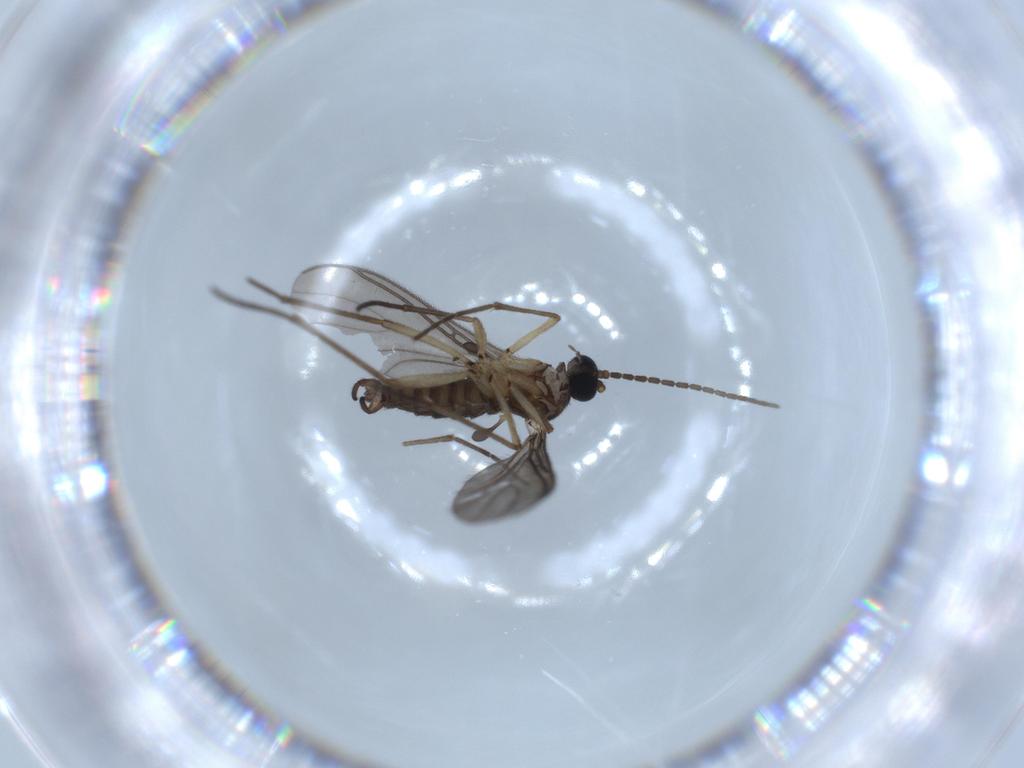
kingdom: Animalia
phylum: Arthropoda
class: Insecta
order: Diptera
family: Sciaridae
